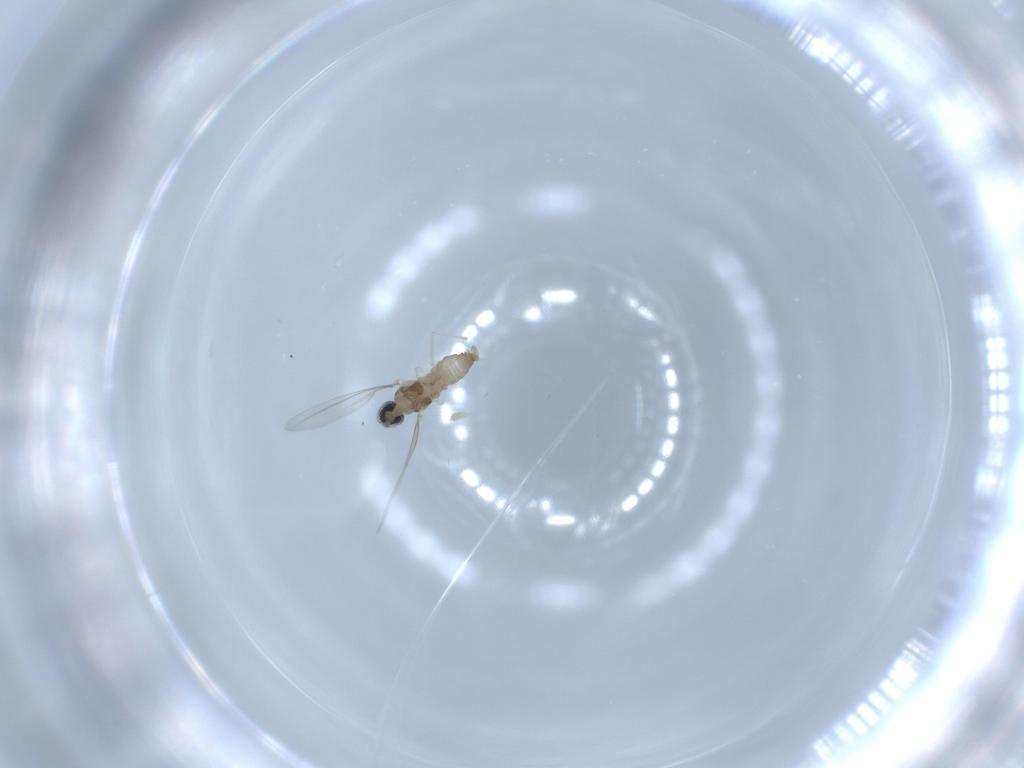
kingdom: Animalia
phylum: Arthropoda
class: Insecta
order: Diptera
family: Cecidomyiidae
